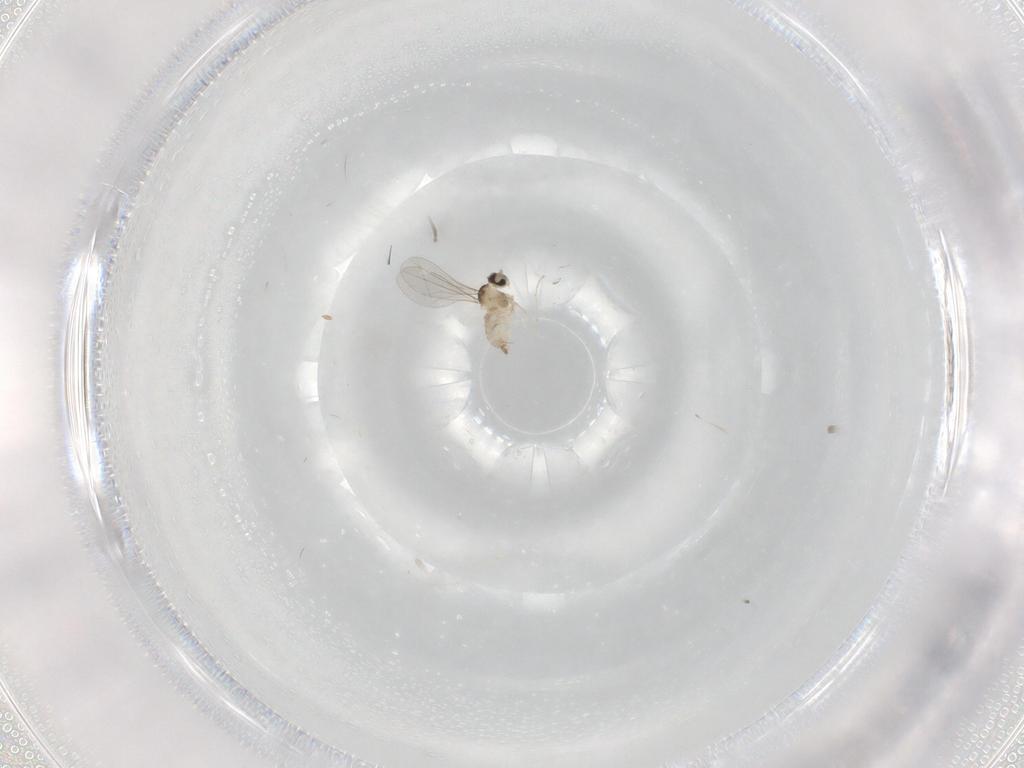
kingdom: Animalia
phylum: Arthropoda
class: Insecta
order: Diptera
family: Cecidomyiidae
